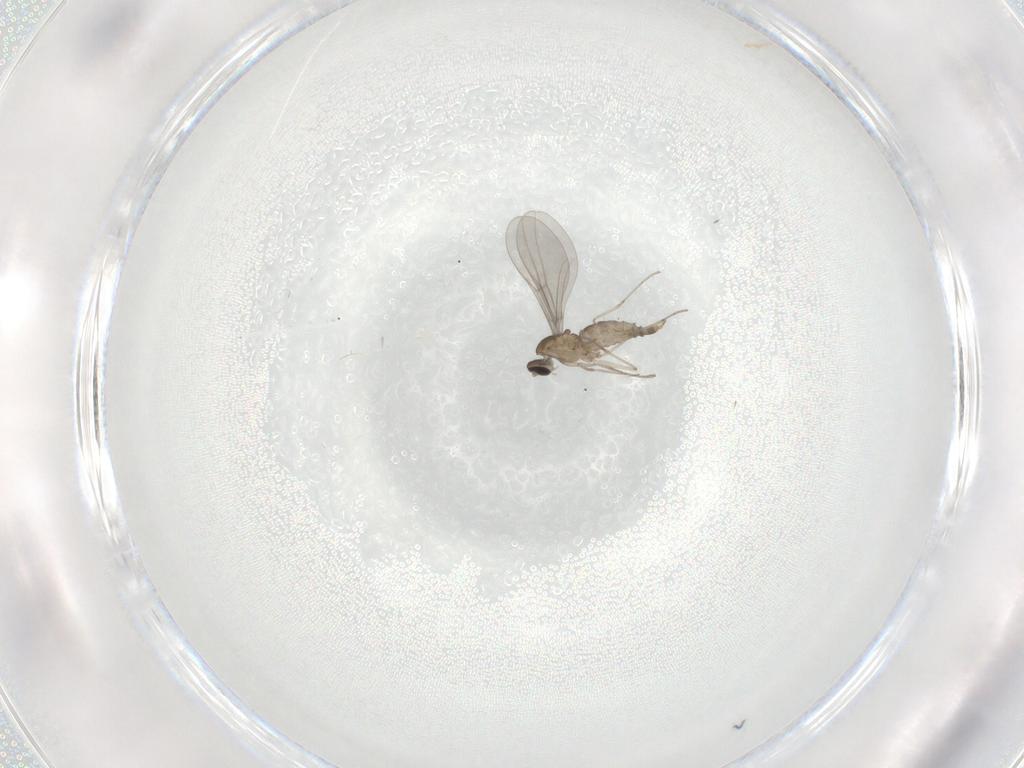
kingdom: Animalia
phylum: Arthropoda
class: Insecta
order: Diptera
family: Cecidomyiidae
